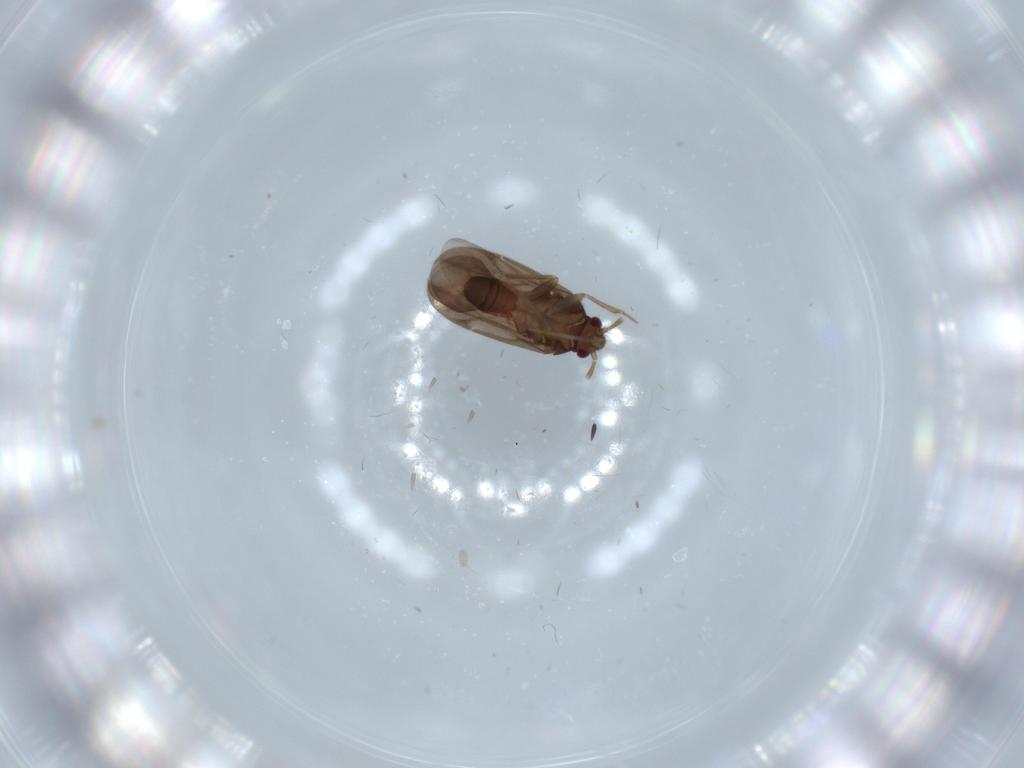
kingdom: Animalia
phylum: Arthropoda
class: Insecta
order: Hemiptera
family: Ceratocombidae
